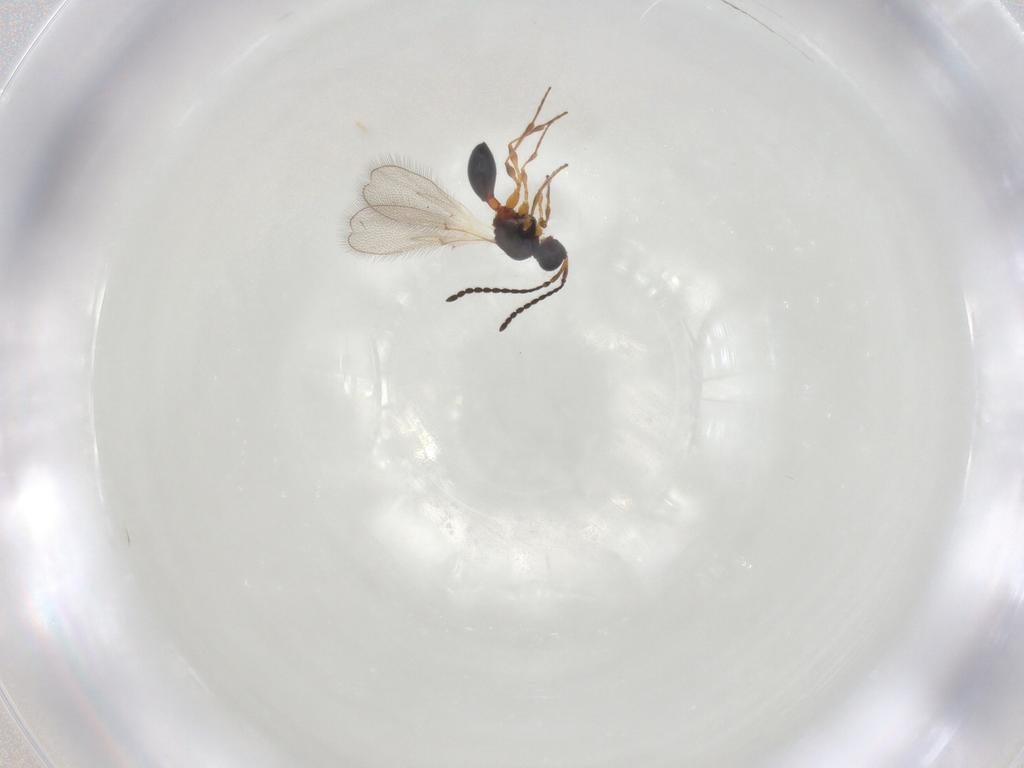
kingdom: Animalia
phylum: Arthropoda
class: Insecta
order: Hymenoptera
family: Diapriidae
